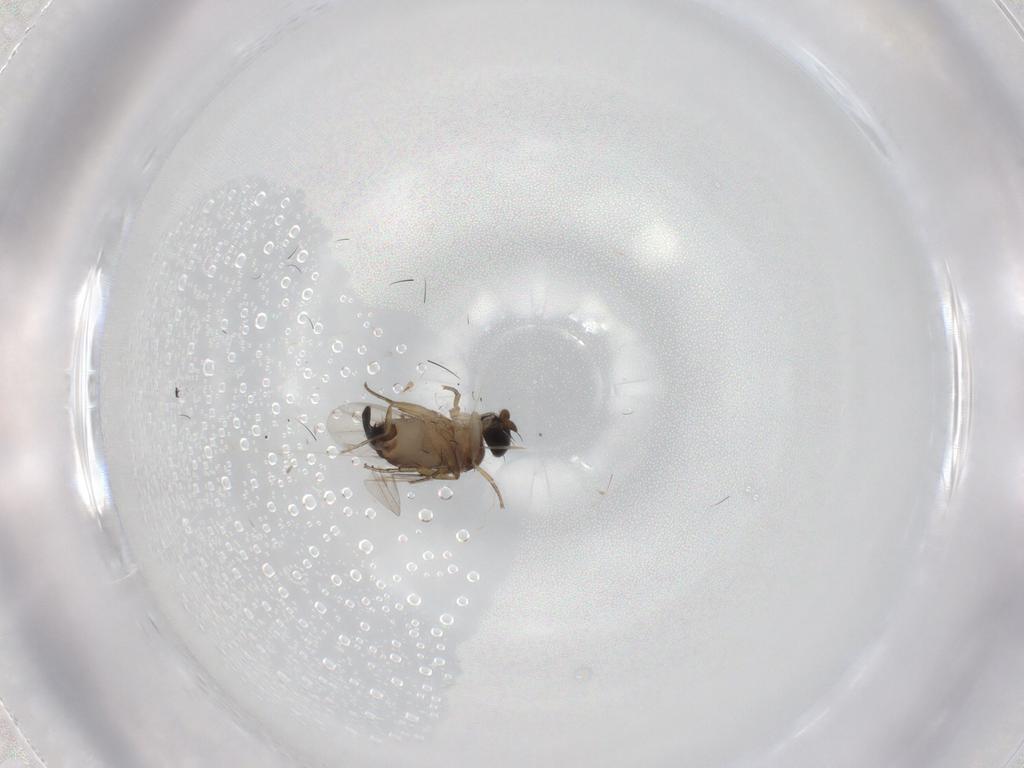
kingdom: Animalia
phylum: Arthropoda
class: Insecta
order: Diptera
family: Phoridae
